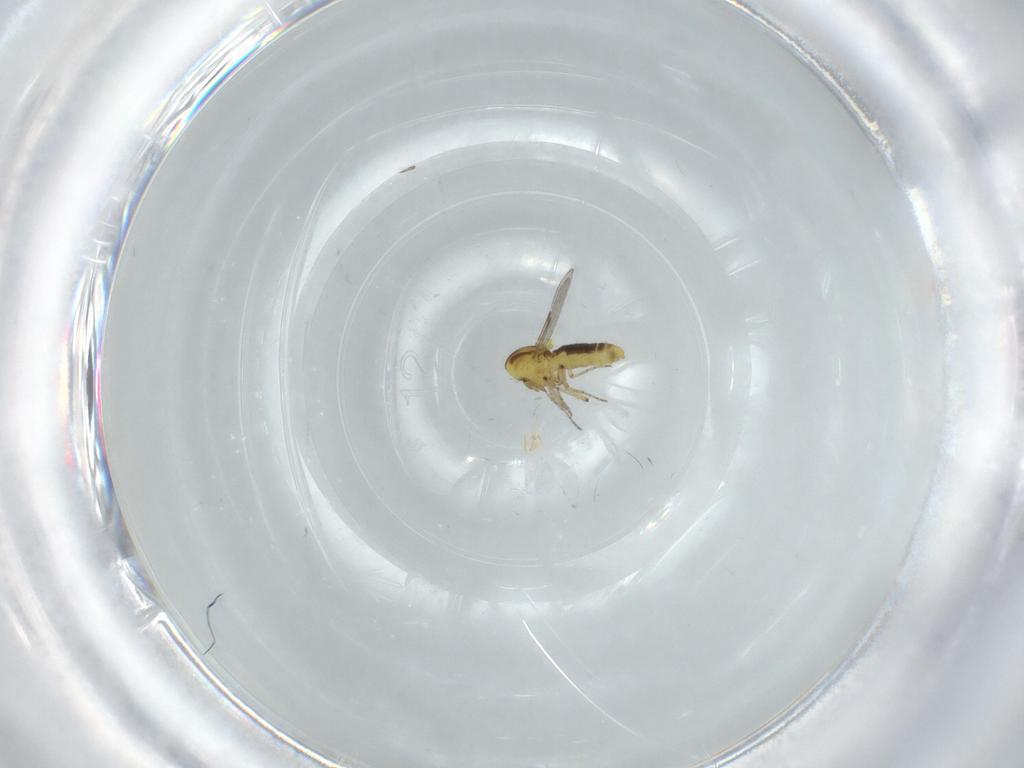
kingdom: Animalia
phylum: Arthropoda
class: Insecta
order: Diptera
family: Ceratopogonidae
